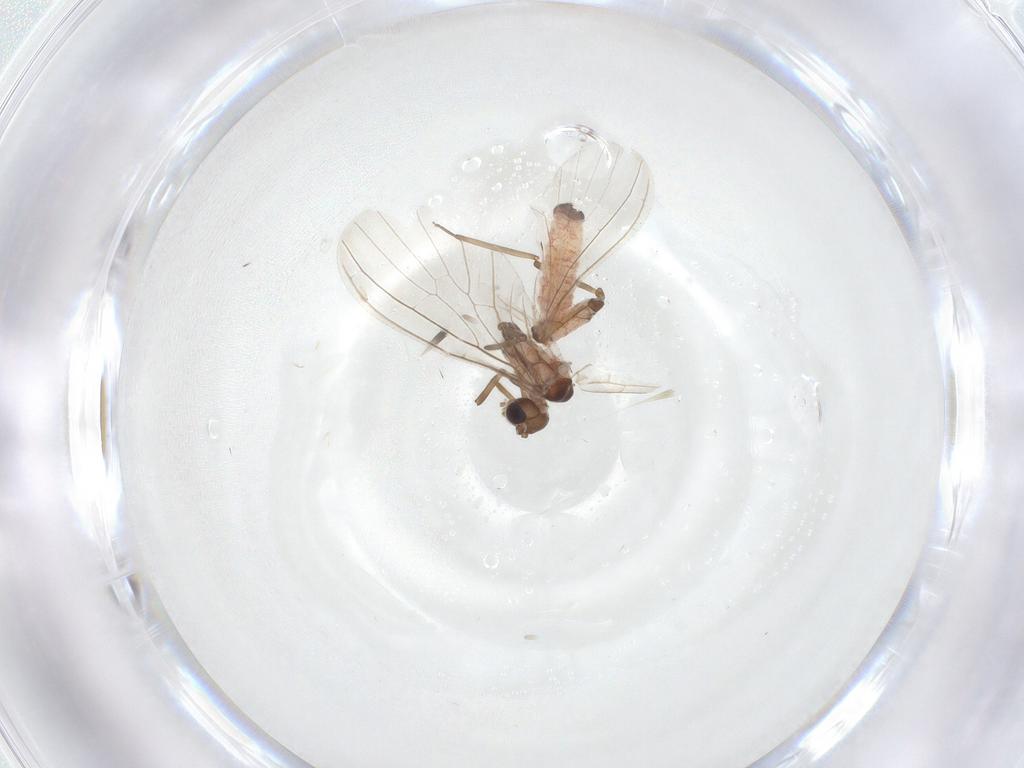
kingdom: Animalia
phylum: Arthropoda
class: Insecta
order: Neuroptera
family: Coniopterygidae
